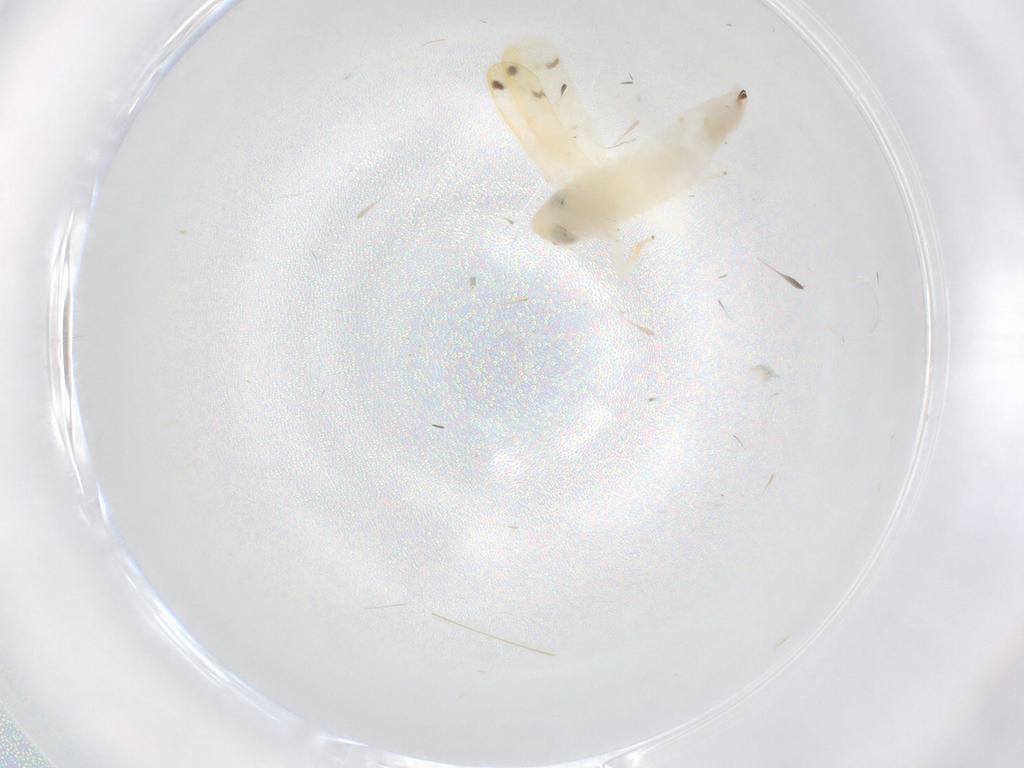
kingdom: Animalia
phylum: Arthropoda
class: Insecta
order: Hemiptera
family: Cicadellidae
